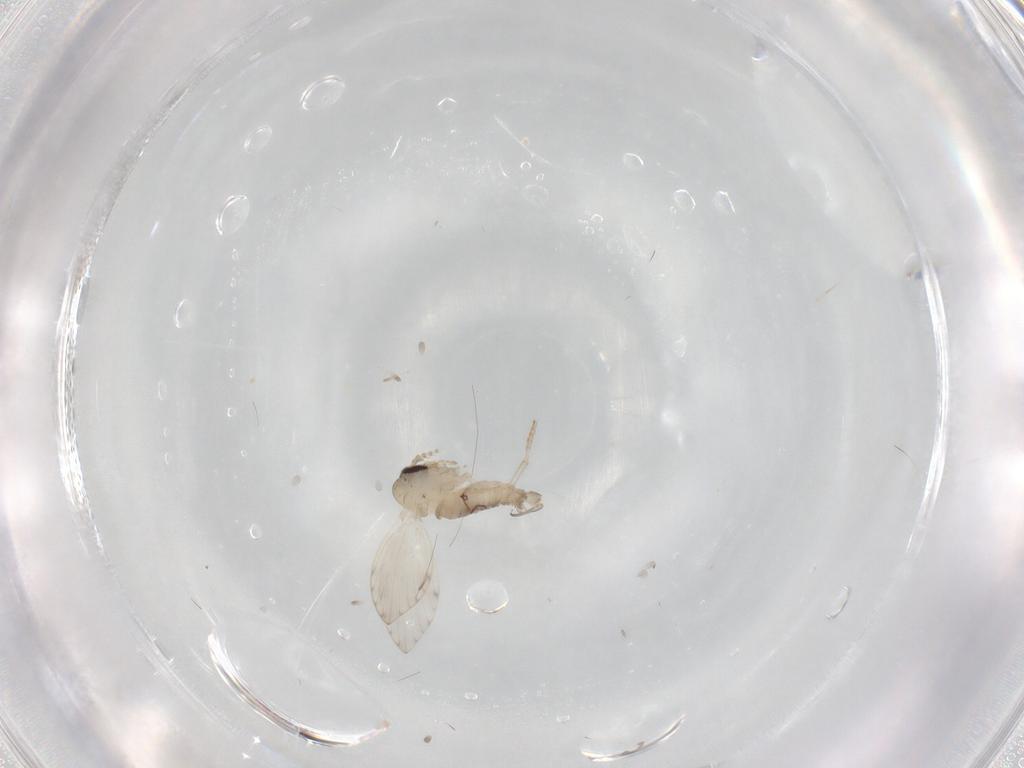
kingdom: Animalia
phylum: Arthropoda
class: Insecta
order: Diptera
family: Psychodidae
